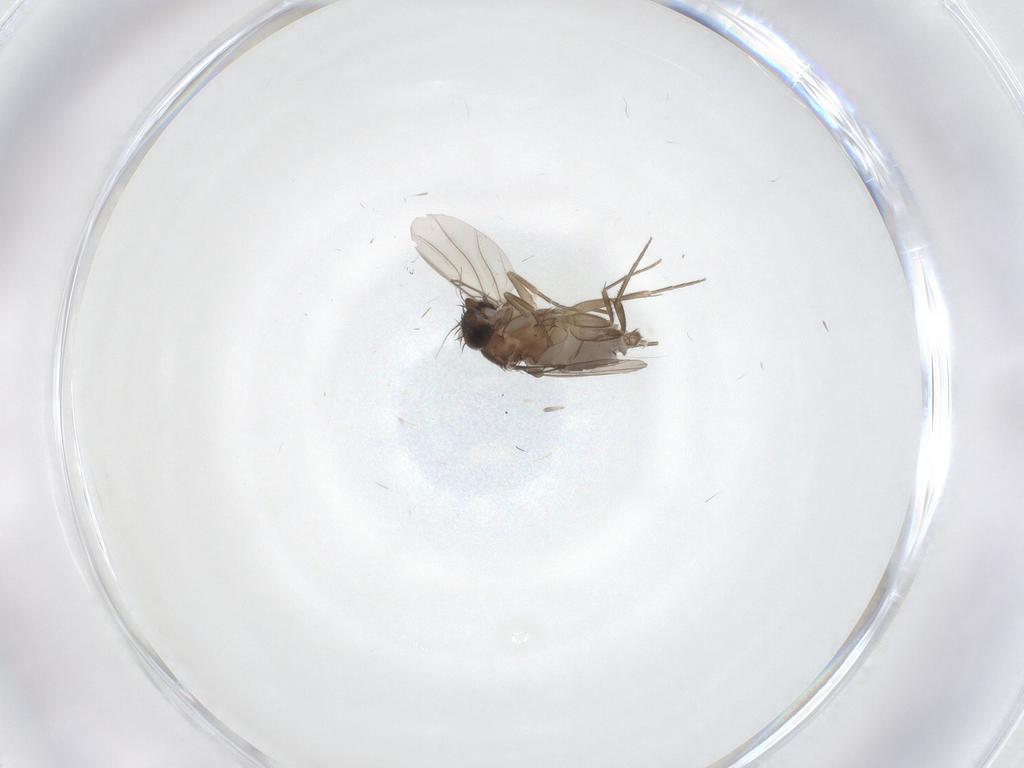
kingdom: Animalia
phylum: Arthropoda
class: Insecta
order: Diptera
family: Phoridae
